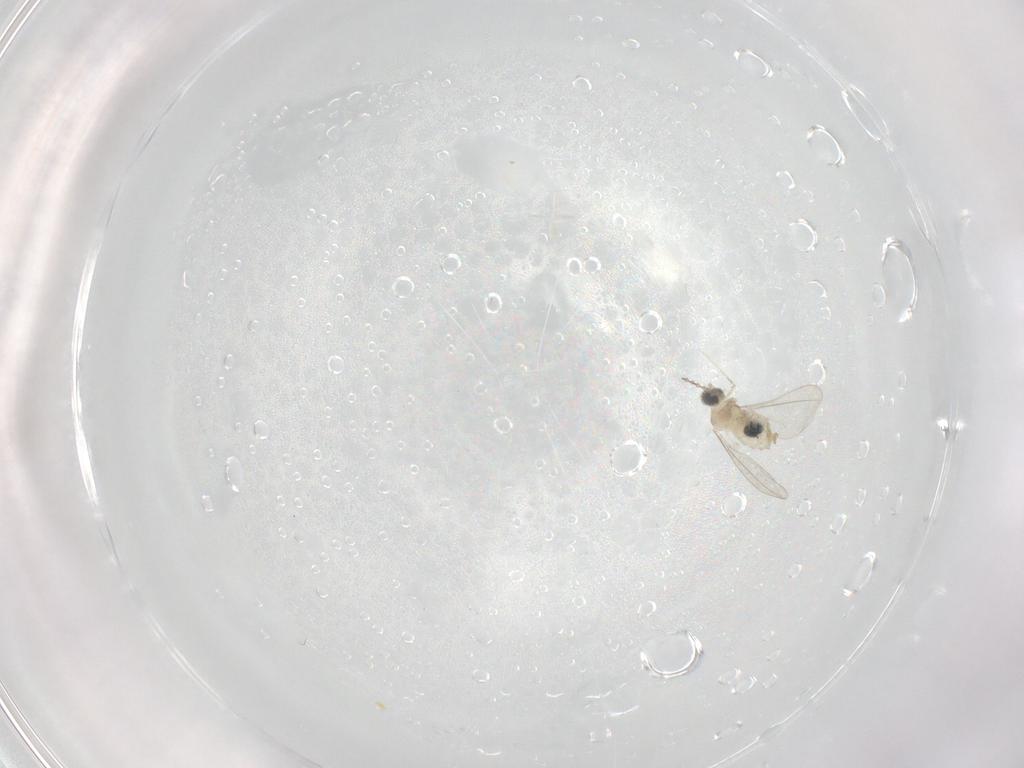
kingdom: Animalia
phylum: Arthropoda
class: Insecta
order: Diptera
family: Cecidomyiidae
